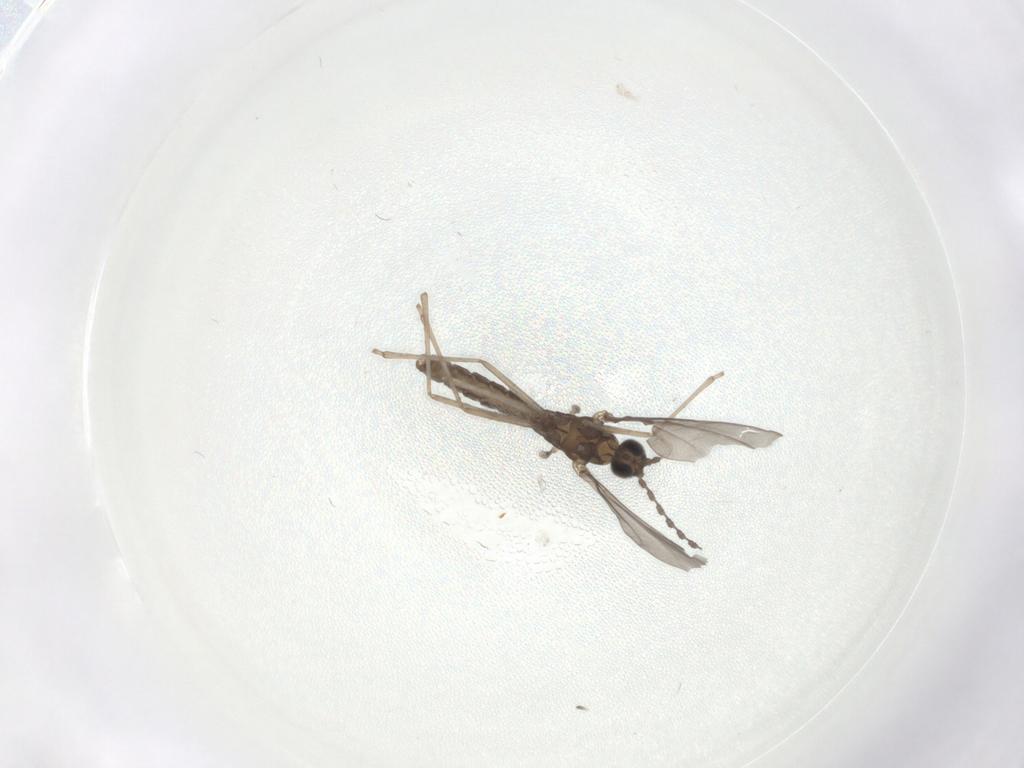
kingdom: Animalia
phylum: Arthropoda
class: Insecta
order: Diptera
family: Cecidomyiidae
